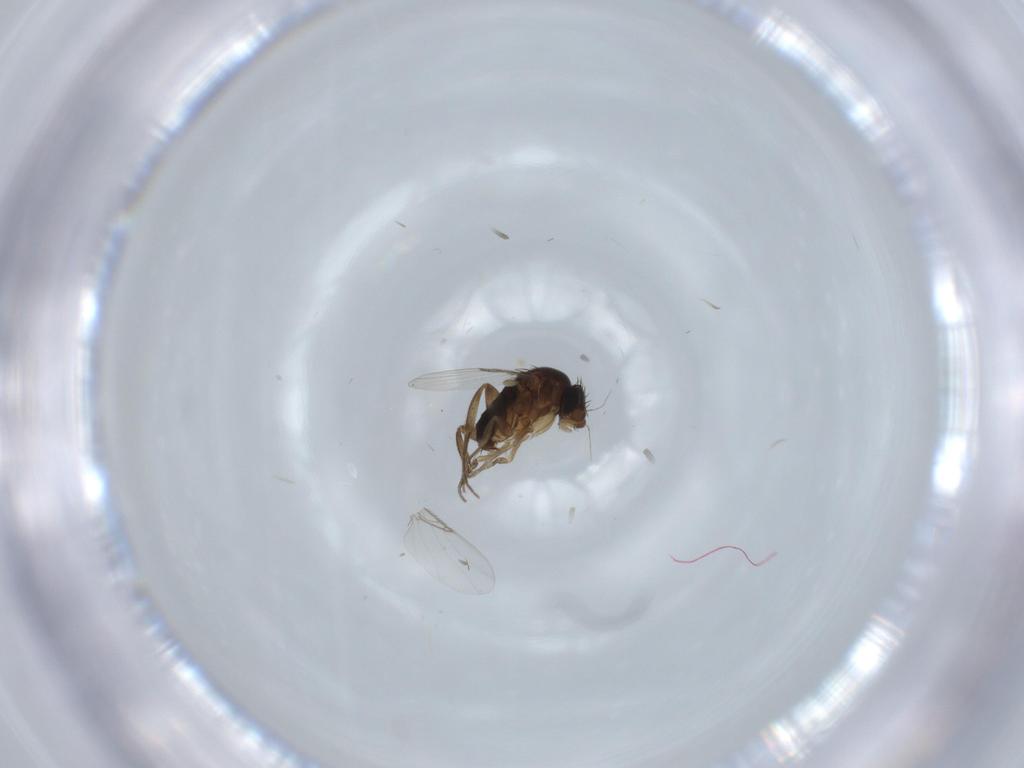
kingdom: Animalia
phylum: Arthropoda
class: Insecta
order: Diptera
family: Phoridae
